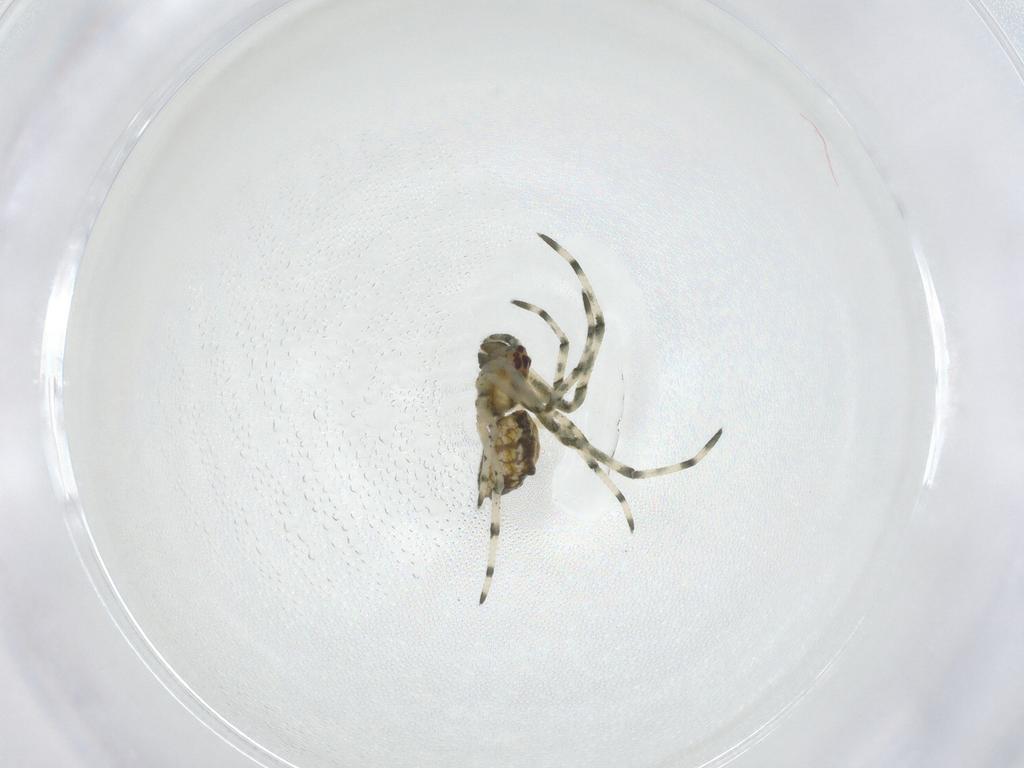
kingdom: Animalia
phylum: Arthropoda
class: Arachnida
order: Araneae
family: Tetragnathidae
